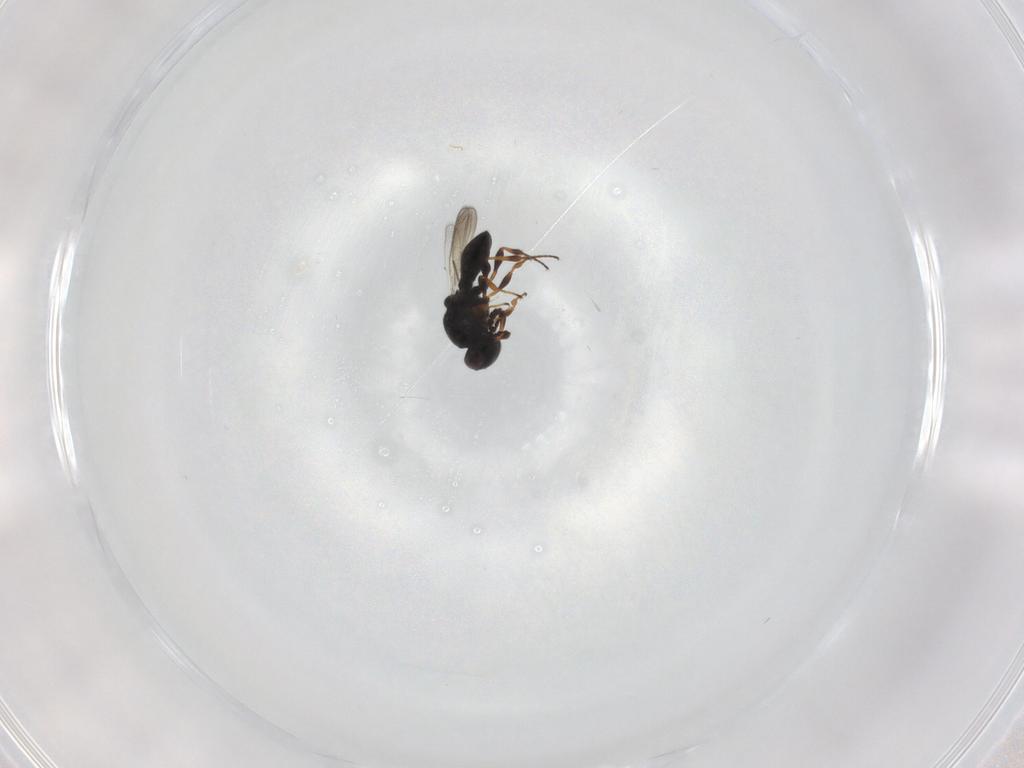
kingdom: Animalia
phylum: Arthropoda
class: Insecta
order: Hymenoptera
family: Platygastridae
